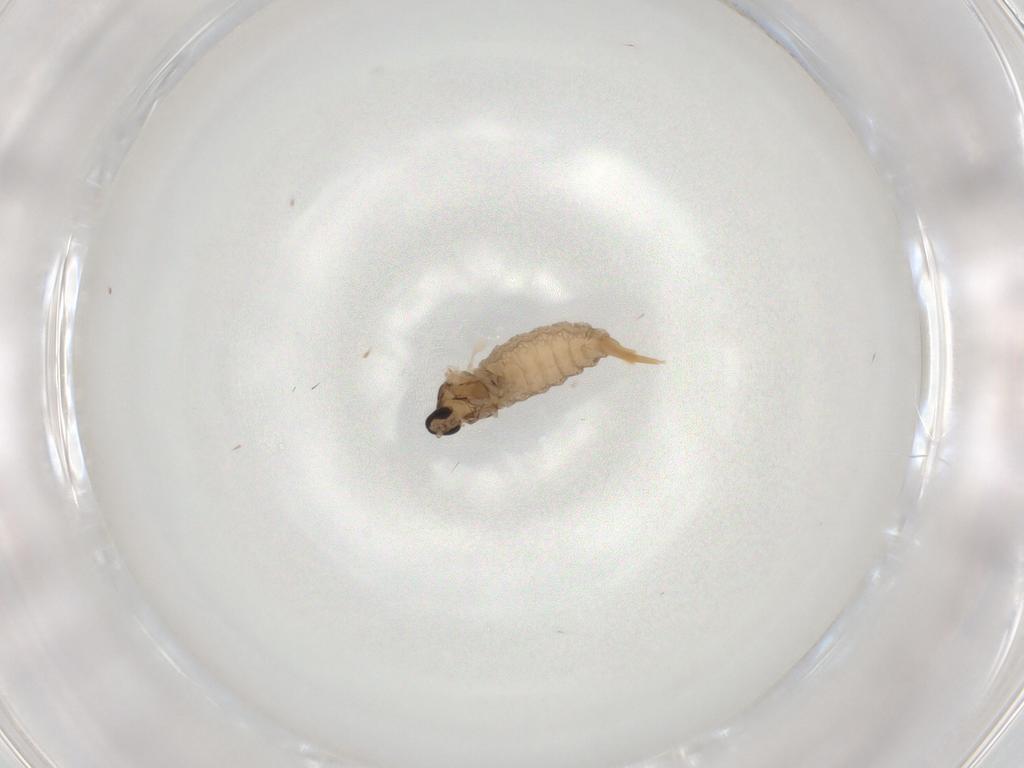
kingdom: Animalia
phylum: Arthropoda
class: Insecta
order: Diptera
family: Cecidomyiidae
